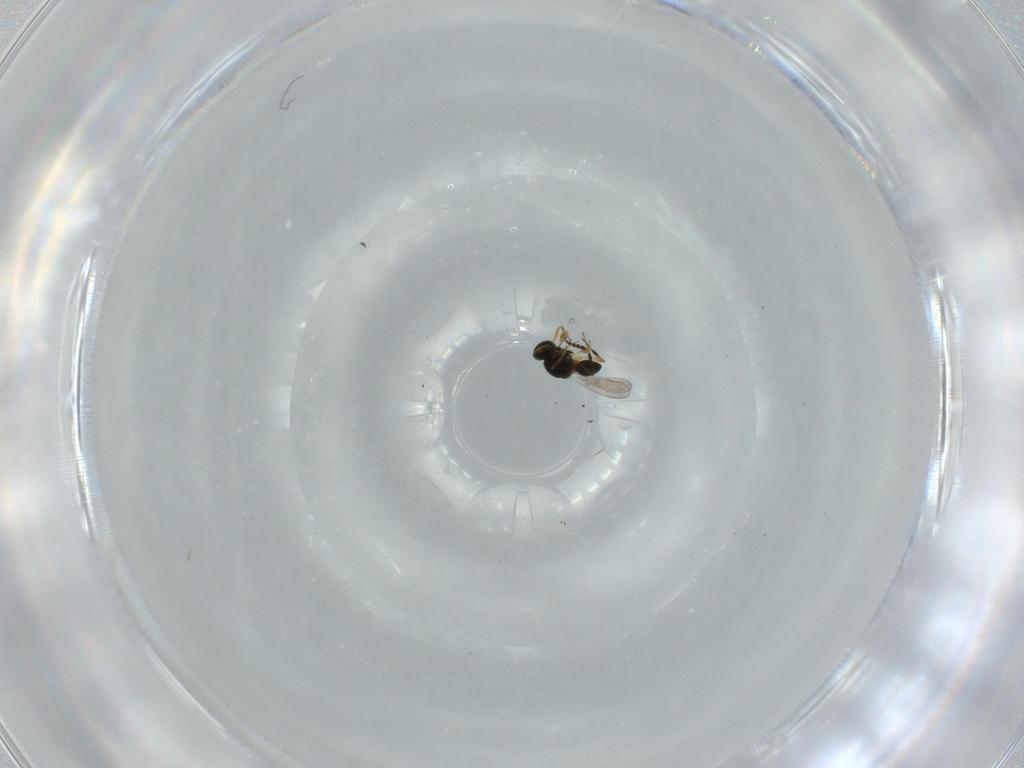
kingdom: Animalia
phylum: Arthropoda
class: Insecta
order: Hymenoptera
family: Platygastridae
